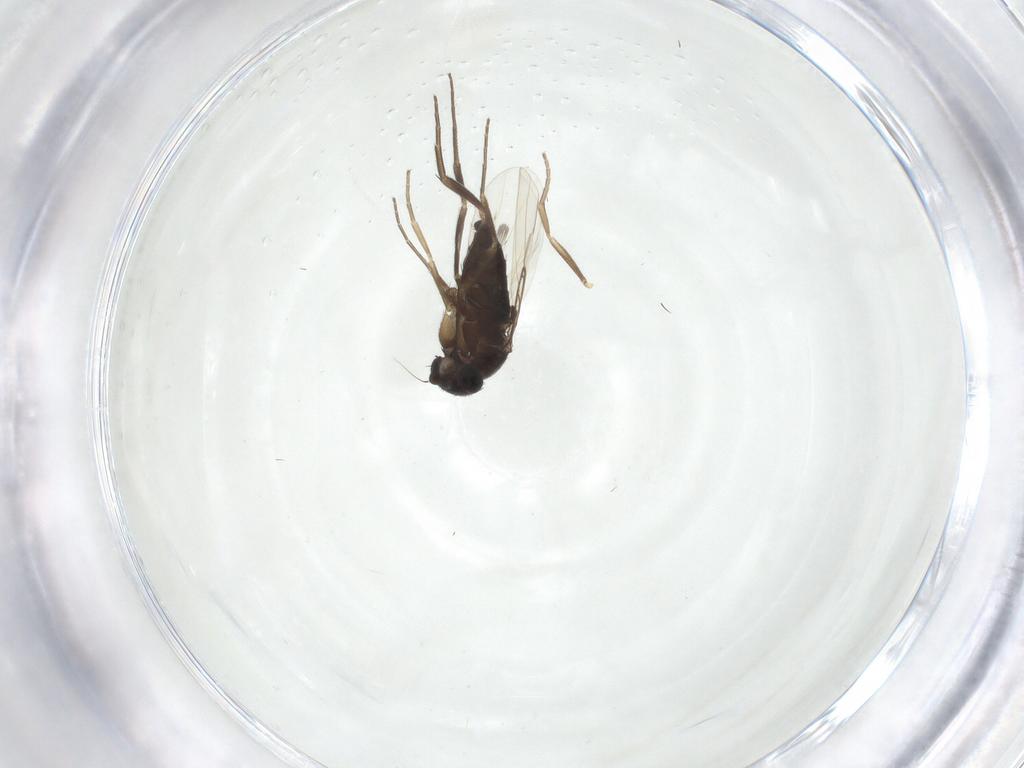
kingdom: Animalia
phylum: Arthropoda
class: Insecta
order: Diptera
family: Phoridae
